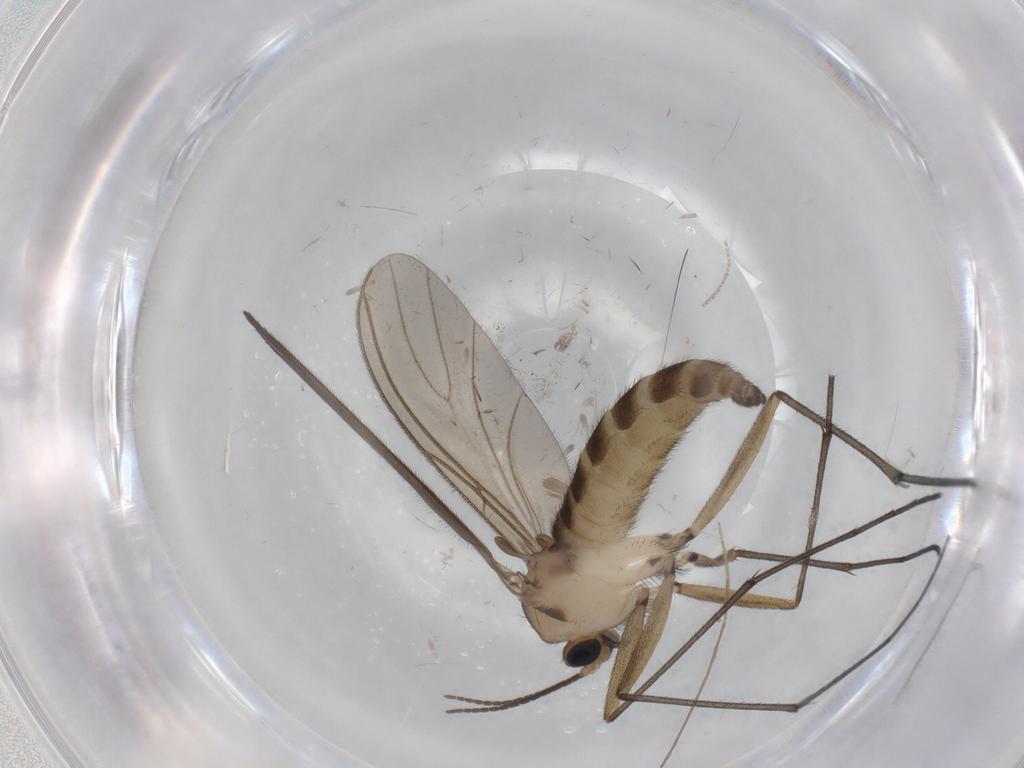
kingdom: Animalia
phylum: Arthropoda
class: Insecta
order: Diptera
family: Sciaridae
